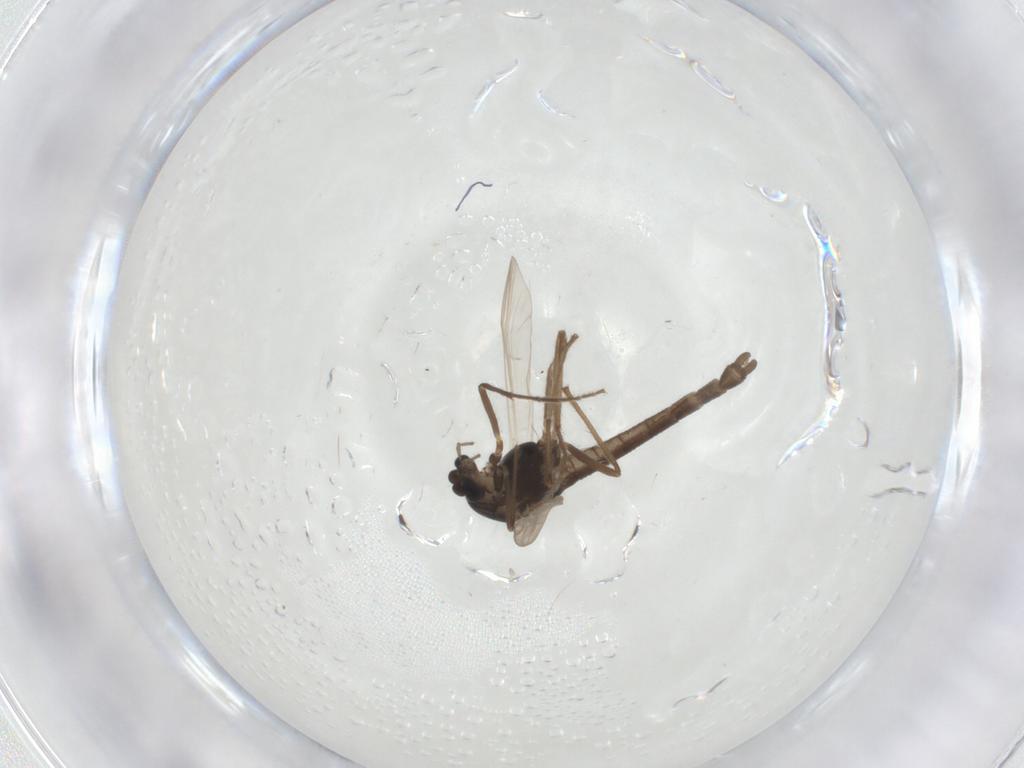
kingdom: Animalia
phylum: Arthropoda
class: Insecta
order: Diptera
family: Chironomidae
